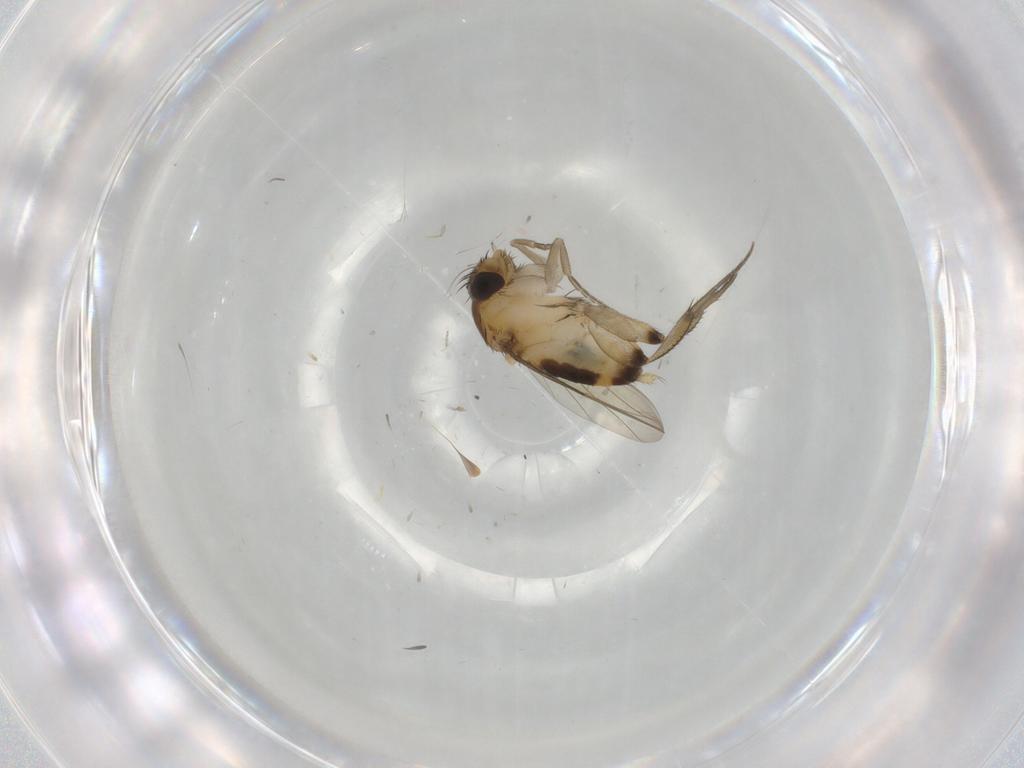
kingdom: Animalia
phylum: Arthropoda
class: Insecta
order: Diptera
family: Phoridae
